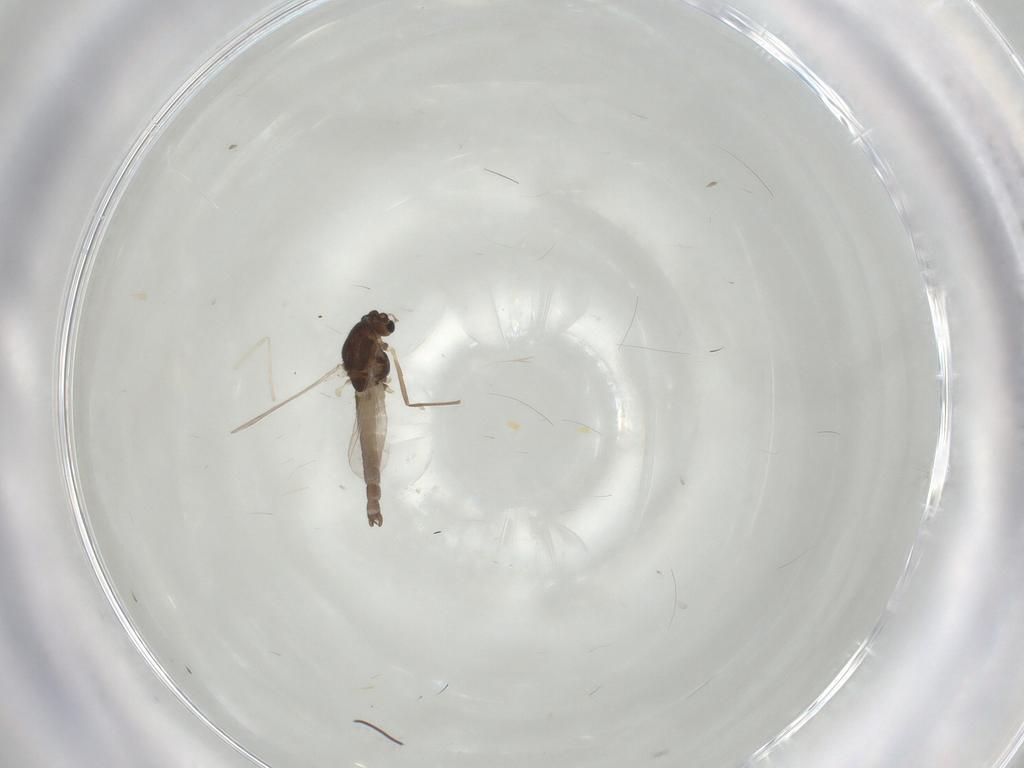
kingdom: Animalia
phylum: Arthropoda
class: Insecta
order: Diptera
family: Chironomidae
